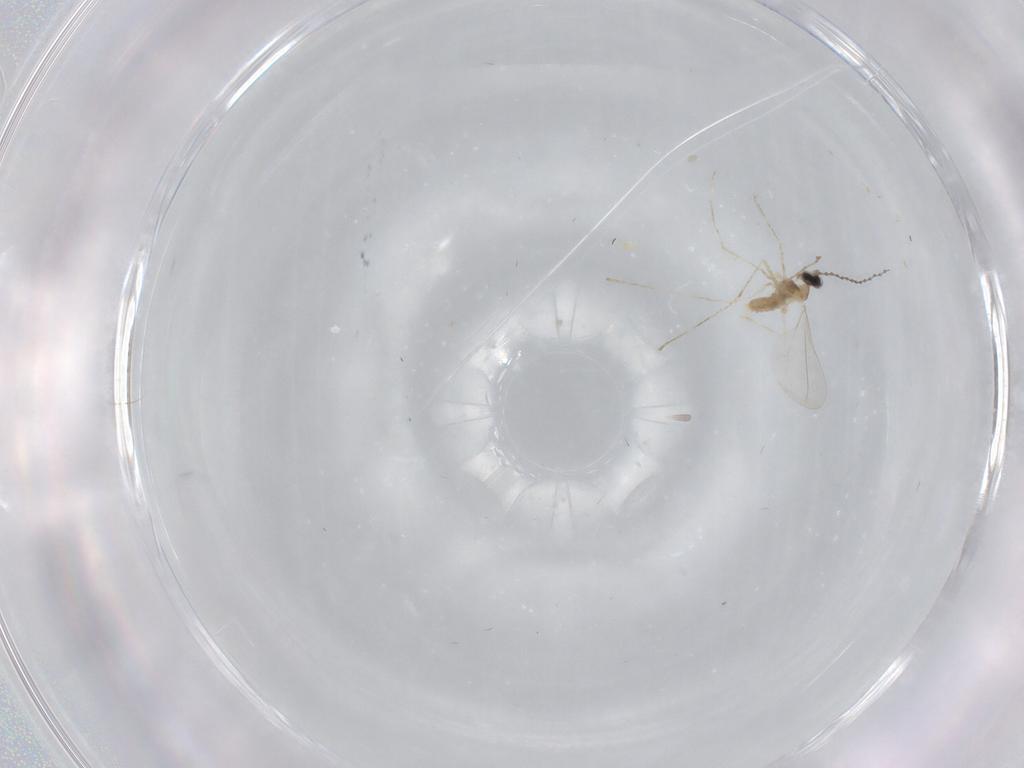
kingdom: Animalia
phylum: Arthropoda
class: Insecta
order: Diptera
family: Cecidomyiidae
